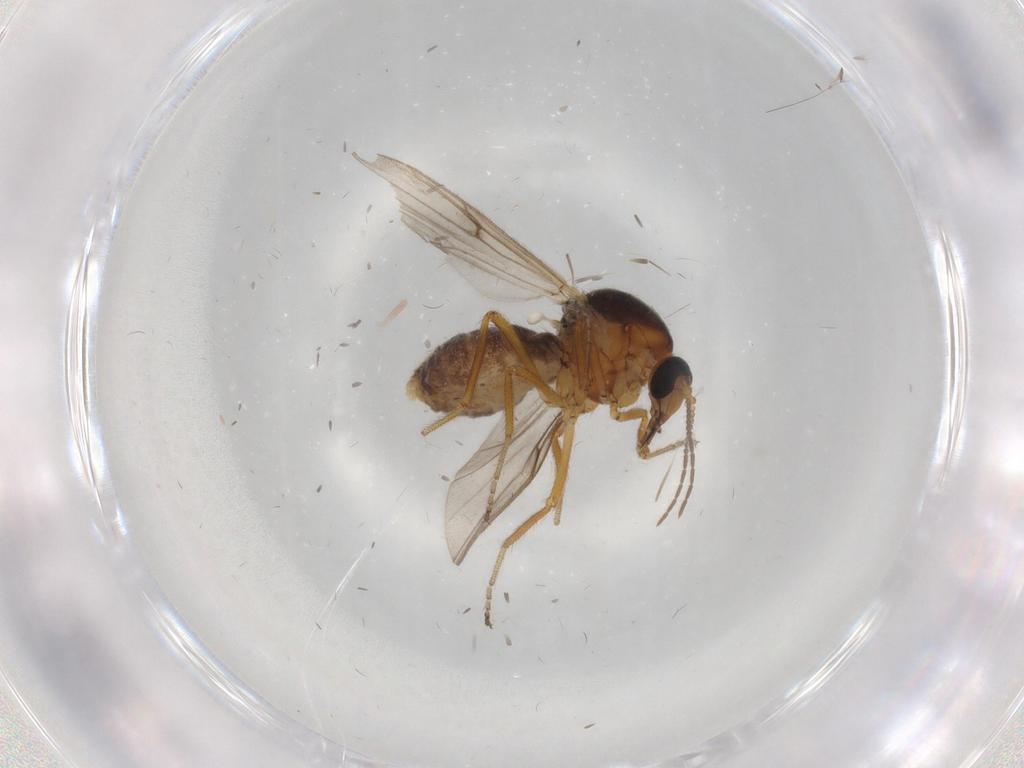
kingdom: Animalia
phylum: Arthropoda
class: Insecta
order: Diptera
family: Ceratopogonidae
